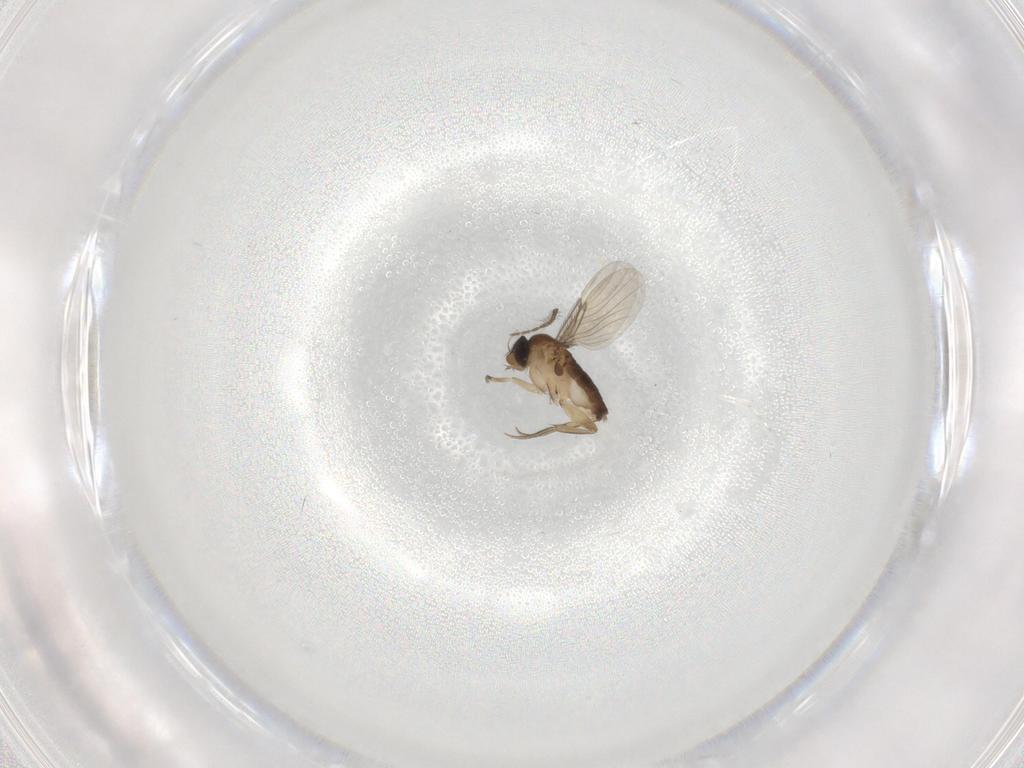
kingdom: Animalia
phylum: Arthropoda
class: Insecta
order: Diptera
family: Phoridae
